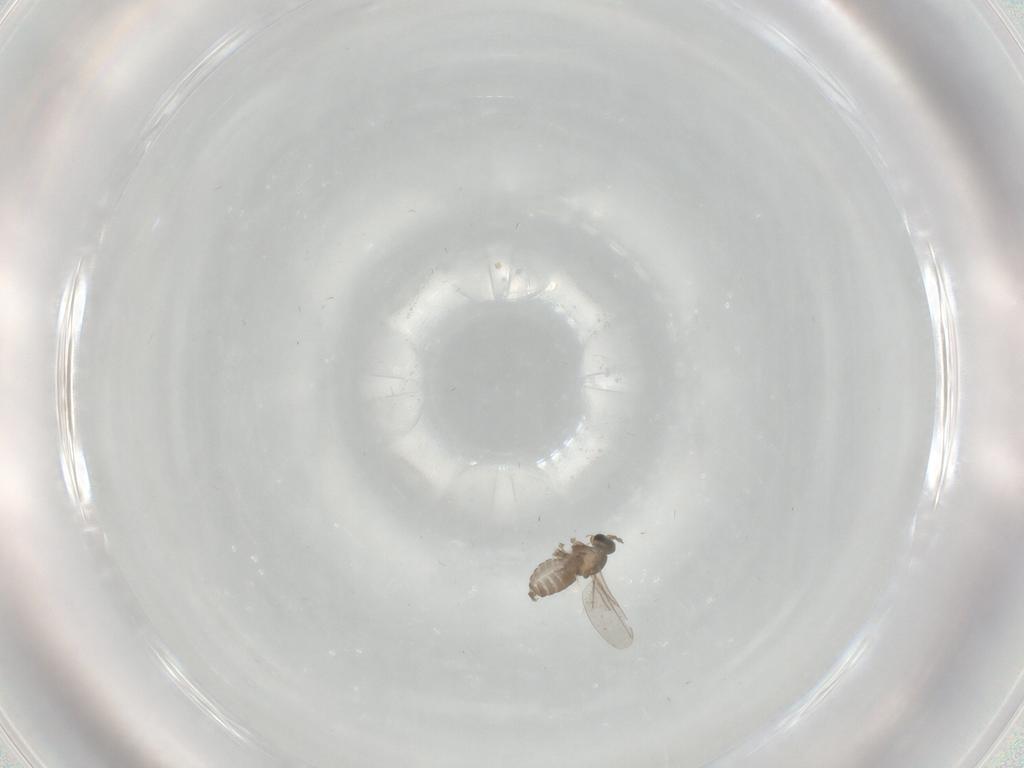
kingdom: Animalia
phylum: Arthropoda
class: Insecta
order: Diptera
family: Cecidomyiidae
